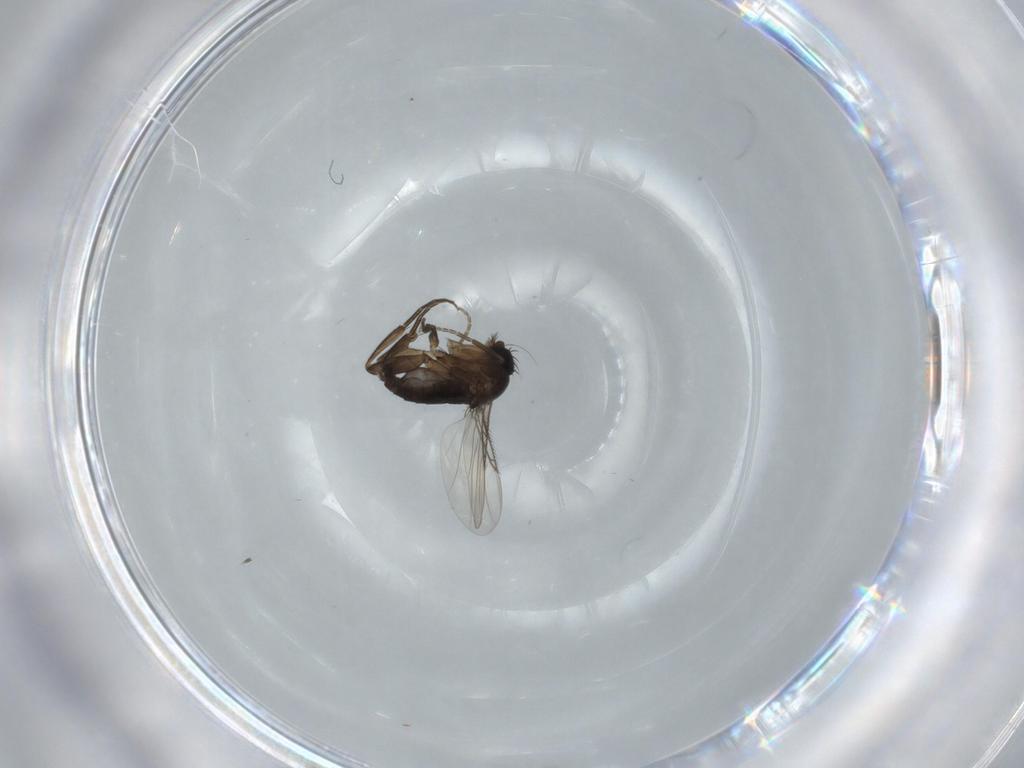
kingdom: Animalia
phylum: Arthropoda
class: Insecta
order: Diptera
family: Phoridae
